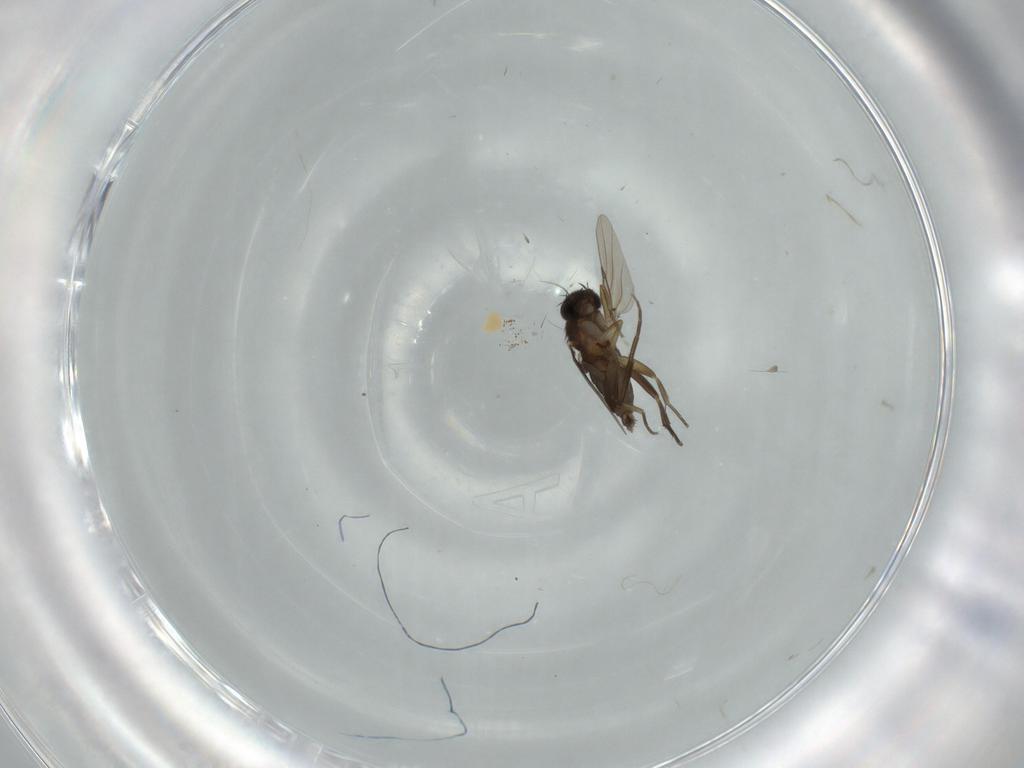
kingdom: Animalia
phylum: Arthropoda
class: Insecta
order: Diptera
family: Phoridae
